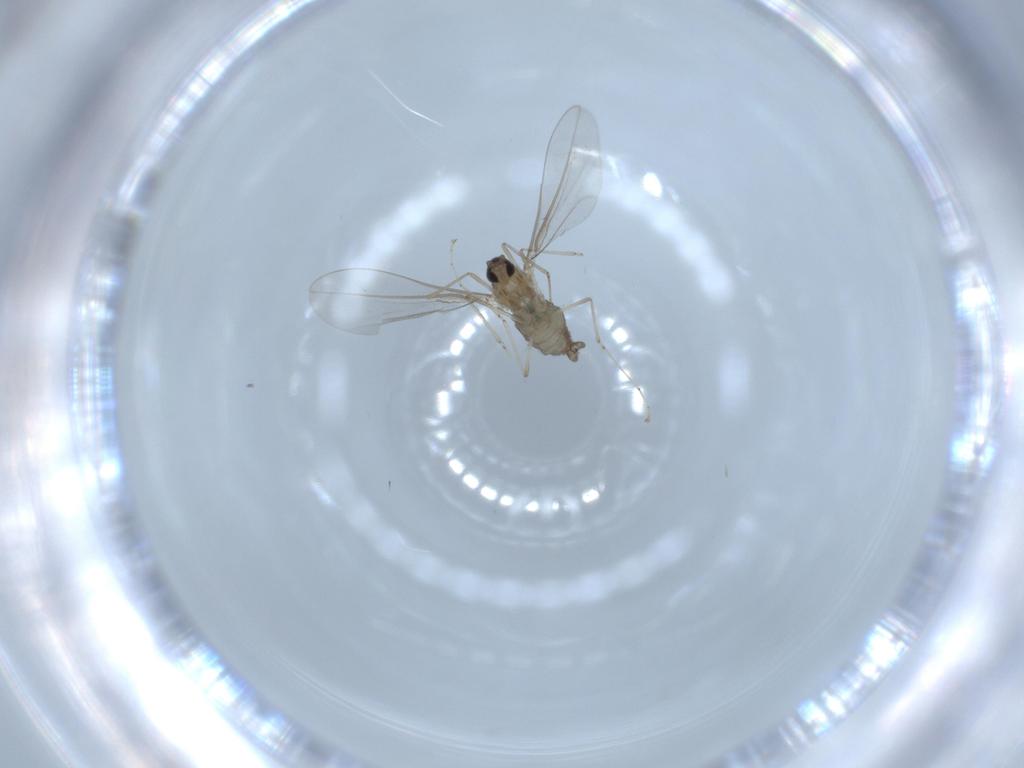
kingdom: Animalia
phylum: Arthropoda
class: Insecta
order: Diptera
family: Cecidomyiidae
